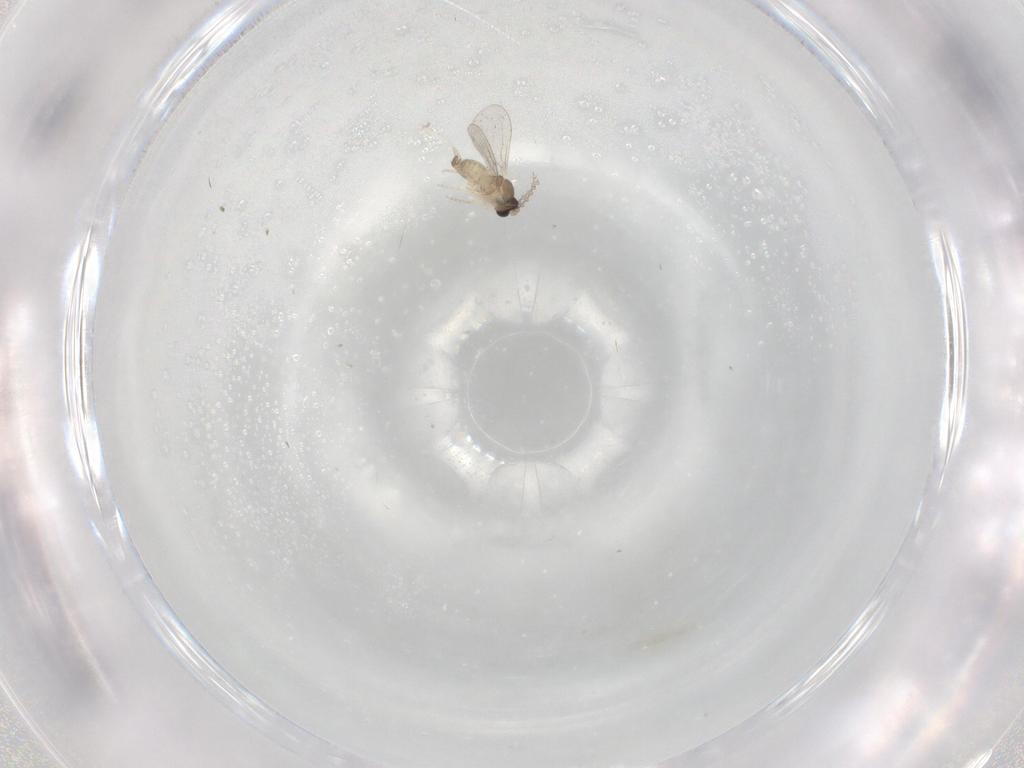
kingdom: Animalia
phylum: Arthropoda
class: Insecta
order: Diptera
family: Cecidomyiidae
